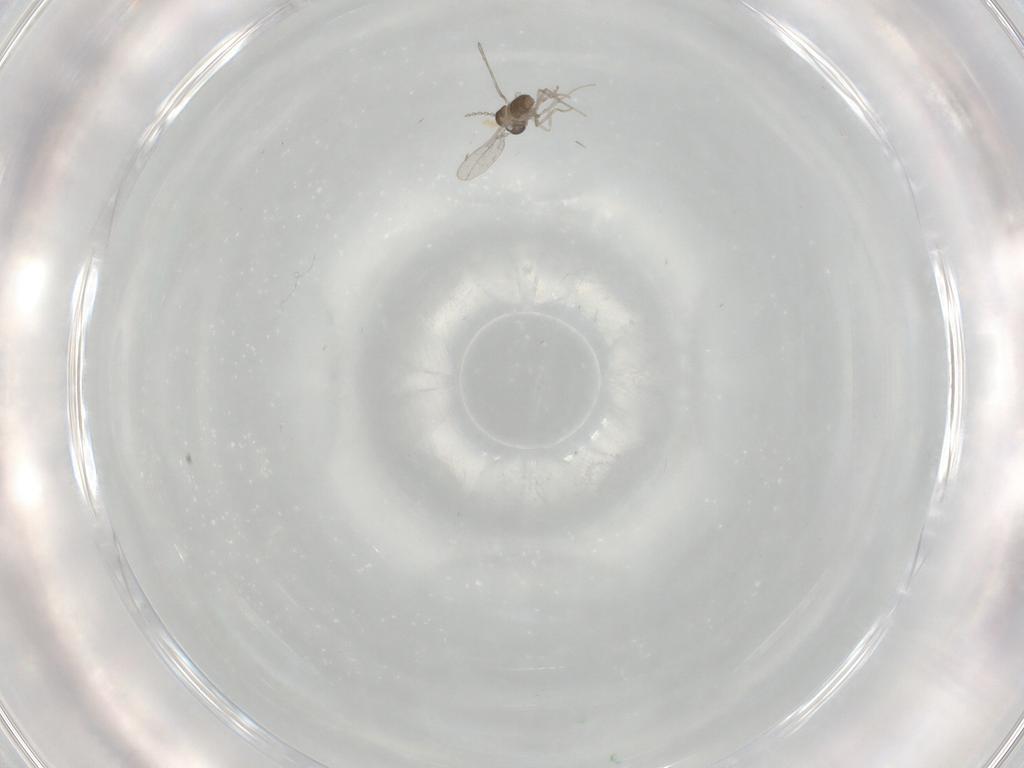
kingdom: Animalia
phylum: Arthropoda
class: Insecta
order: Diptera
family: Cecidomyiidae
